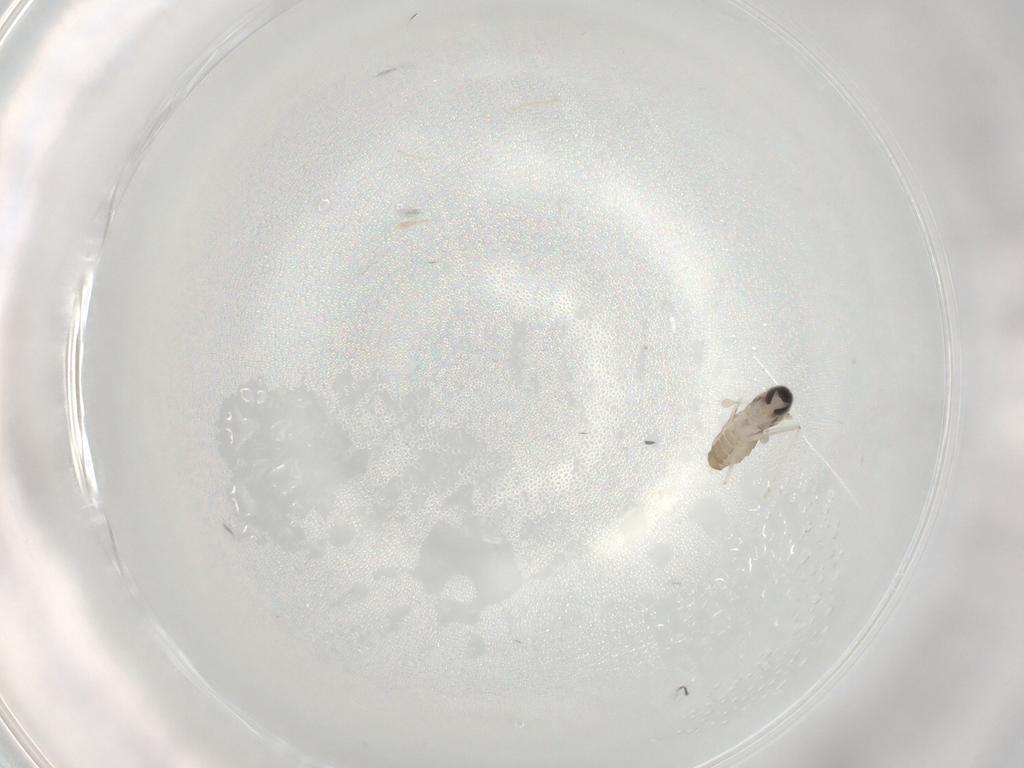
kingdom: Animalia
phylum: Arthropoda
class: Insecta
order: Diptera
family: Cecidomyiidae
